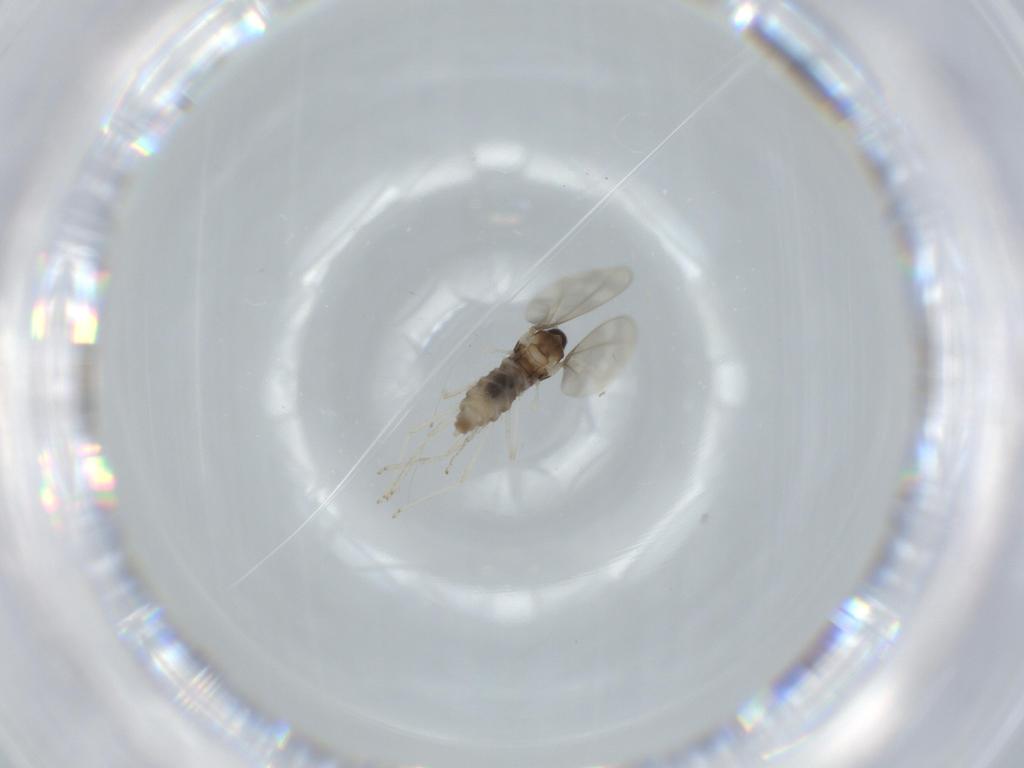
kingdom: Animalia
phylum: Arthropoda
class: Insecta
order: Diptera
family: Cecidomyiidae
